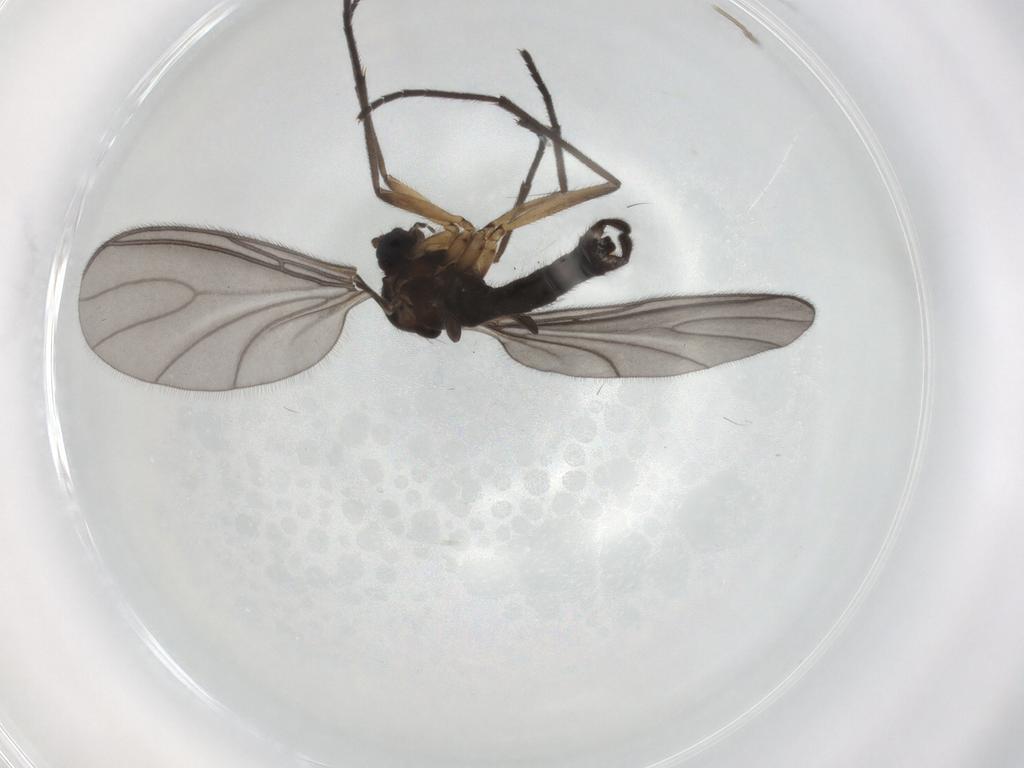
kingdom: Animalia
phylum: Arthropoda
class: Insecta
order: Diptera
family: Sciaridae
